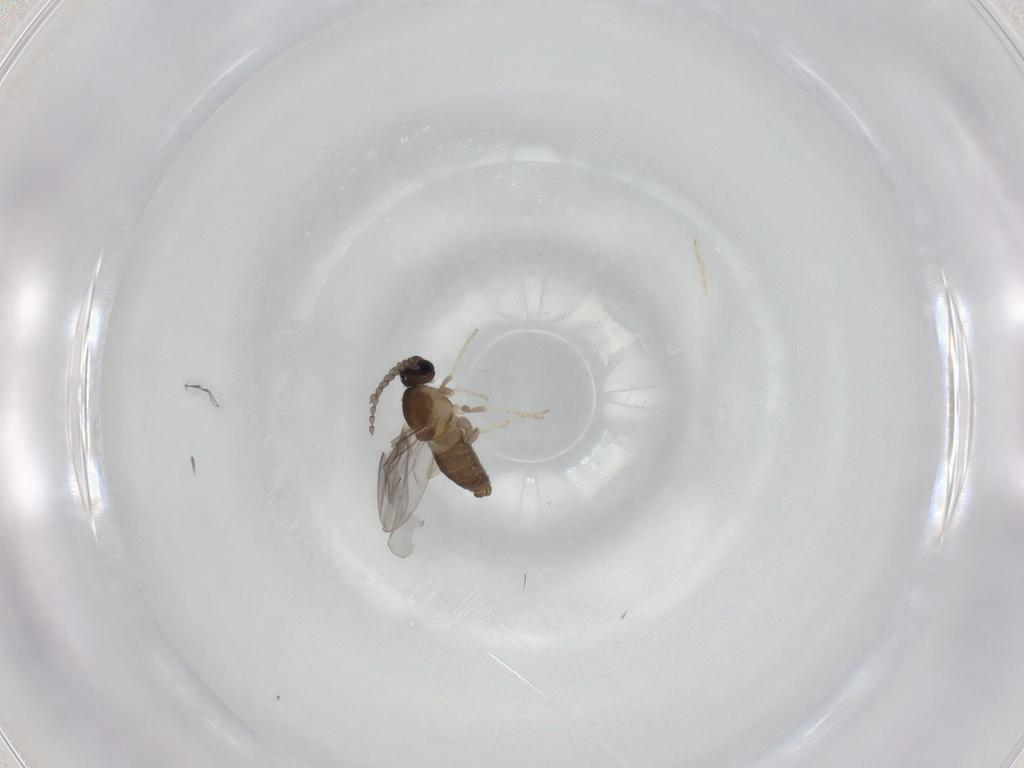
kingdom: Animalia
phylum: Arthropoda
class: Insecta
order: Diptera
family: Cecidomyiidae
